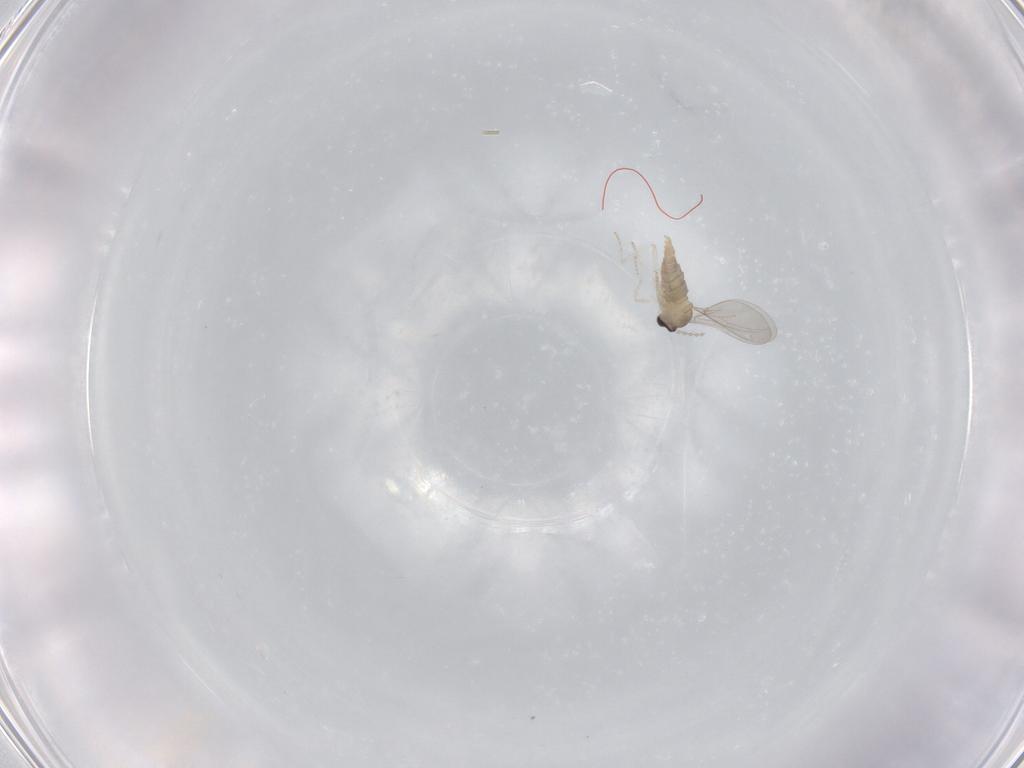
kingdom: Animalia
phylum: Arthropoda
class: Insecta
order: Diptera
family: Cecidomyiidae
